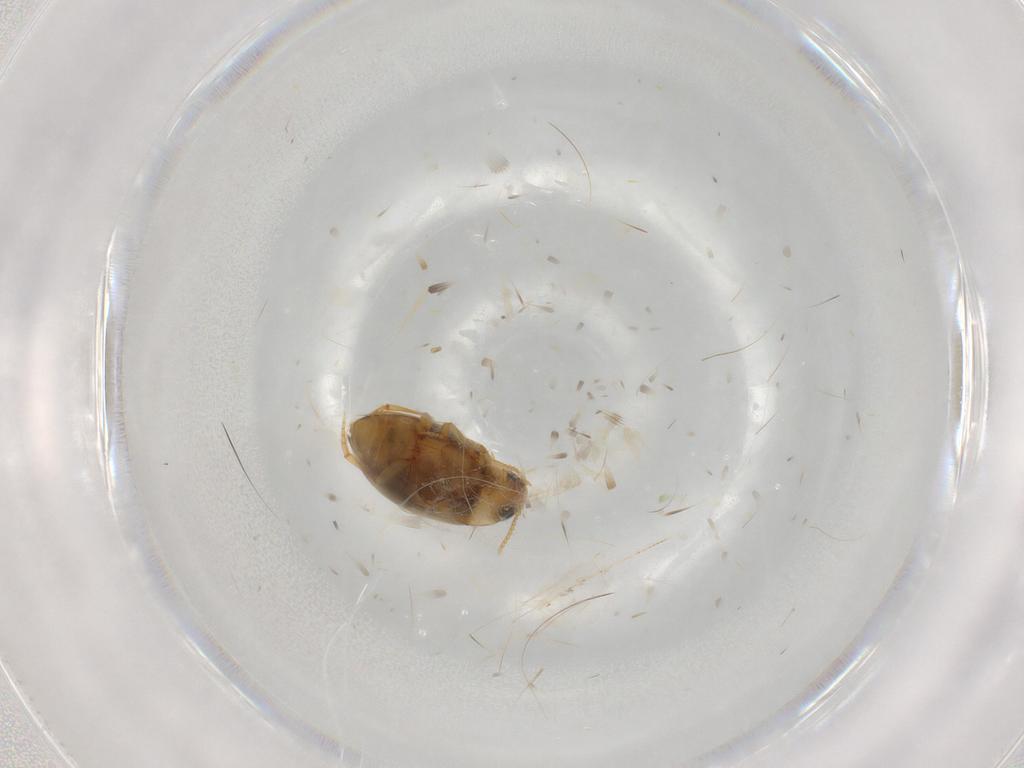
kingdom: Animalia
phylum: Arthropoda
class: Insecta
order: Coleoptera
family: Dytiscidae
